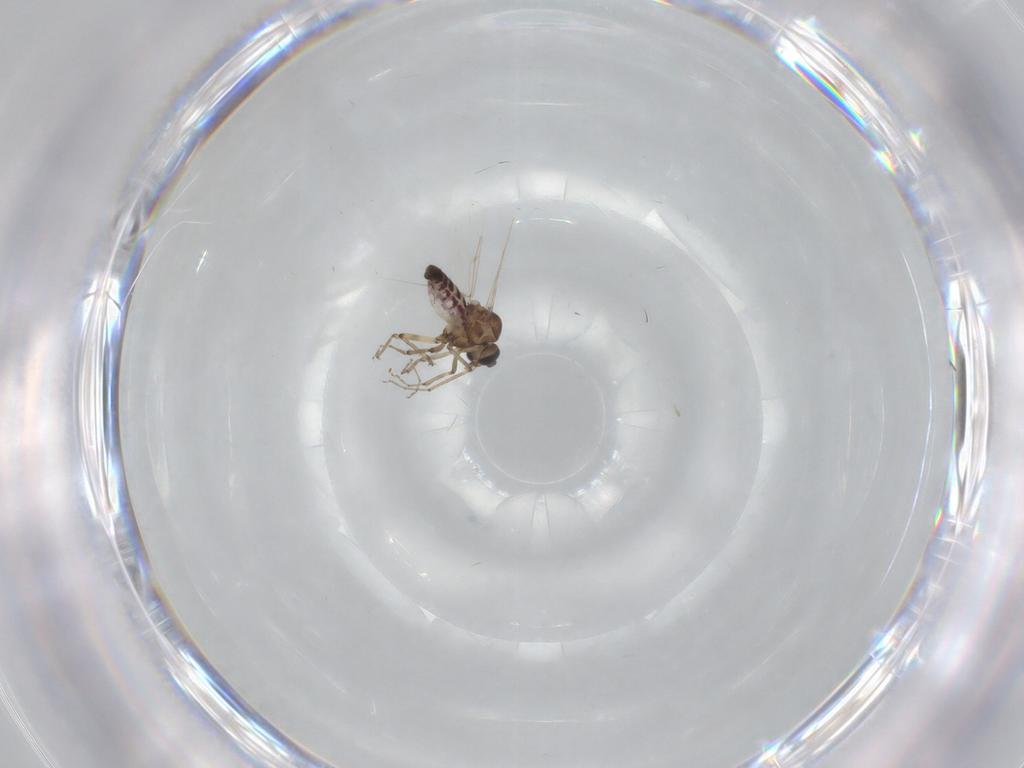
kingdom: Animalia
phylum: Arthropoda
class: Insecta
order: Diptera
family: Ceratopogonidae
